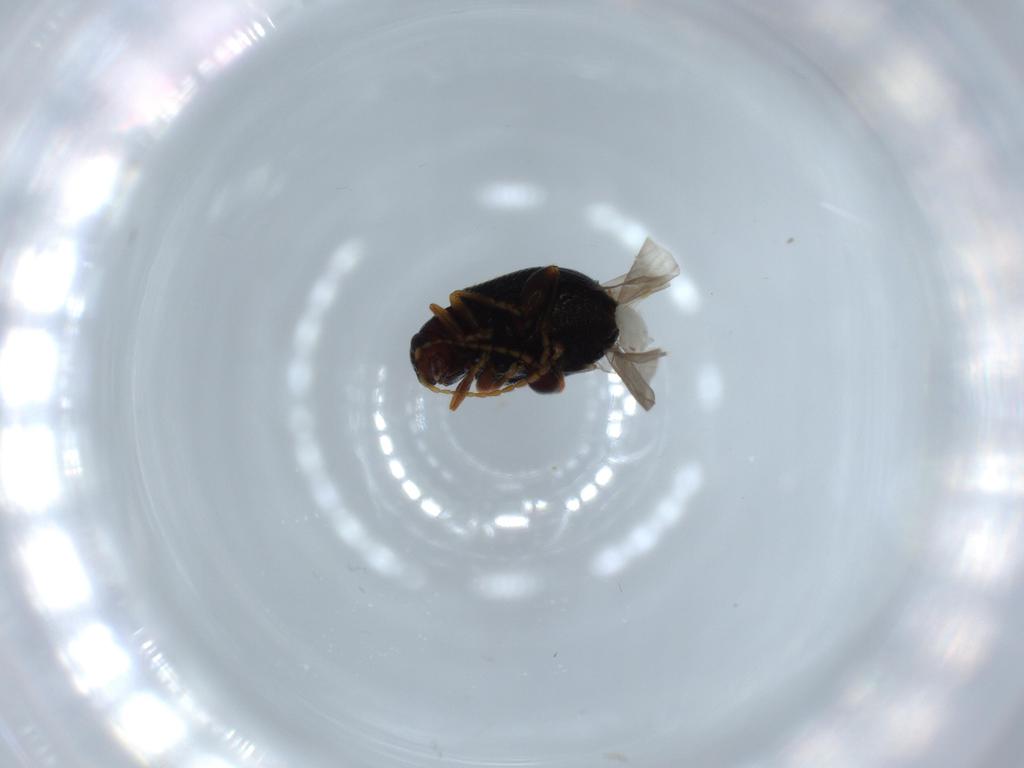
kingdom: Animalia
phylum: Arthropoda
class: Insecta
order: Coleoptera
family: Chrysomelidae
